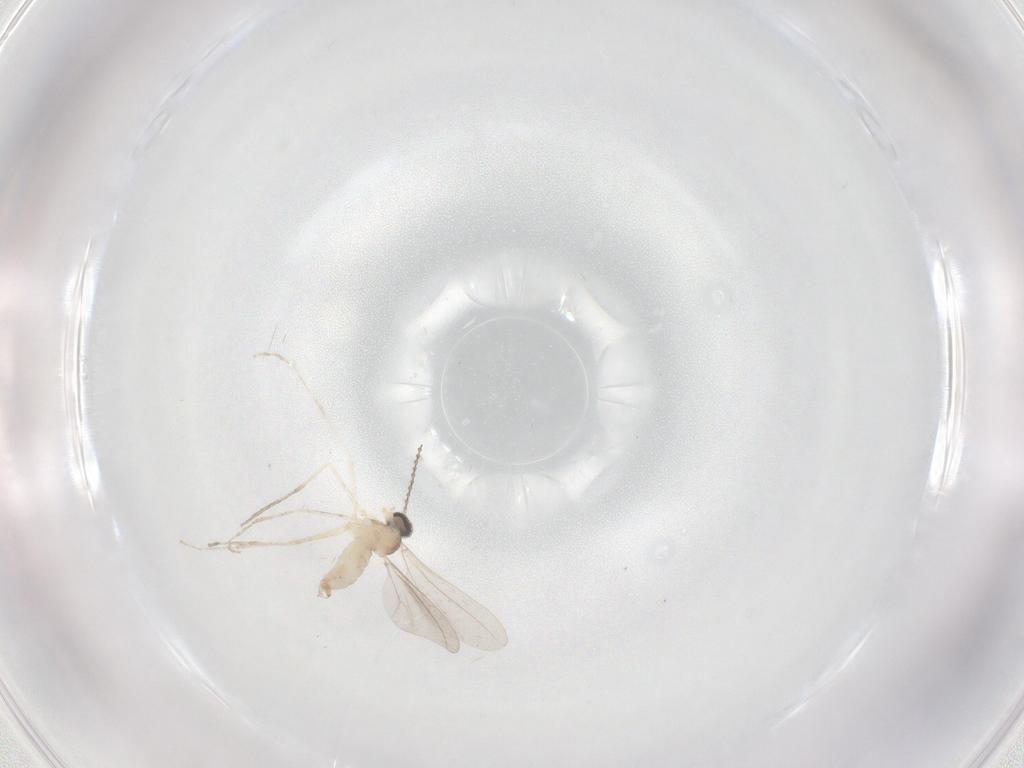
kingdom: Animalia
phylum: Arthropoda
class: Insecta
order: Diptera
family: Cecidomyiidae
